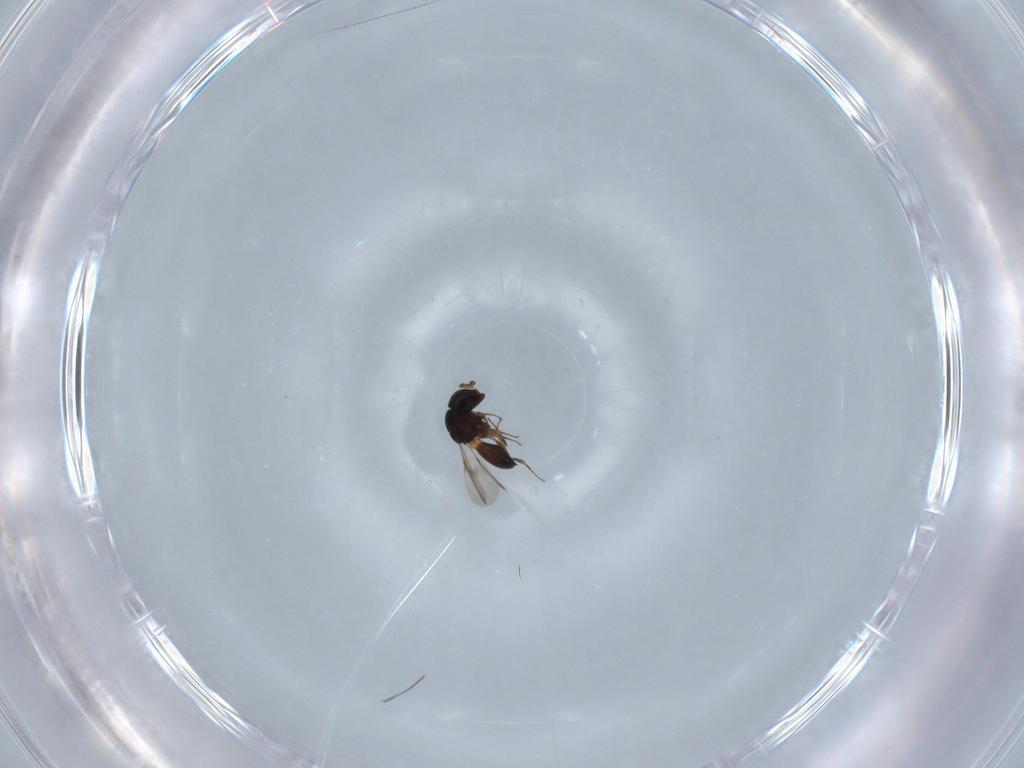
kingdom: Animalia
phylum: Arthropoda
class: Insecta
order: Hymenoptera
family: Scelionidae
